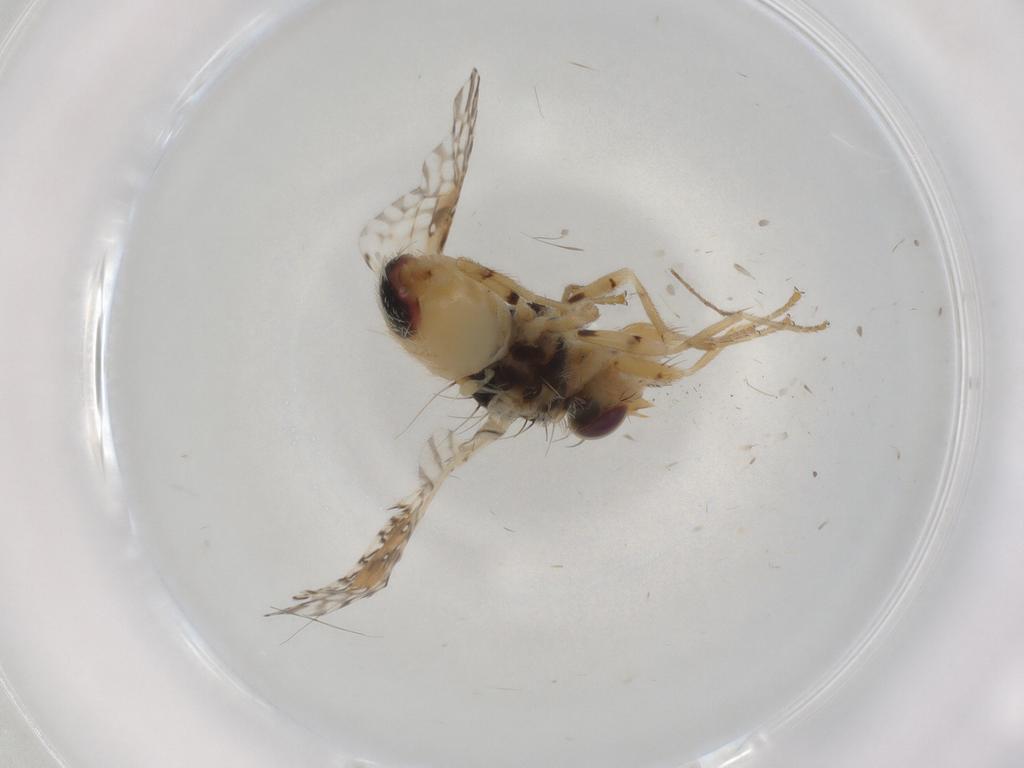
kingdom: Animalia
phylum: Arthropoda
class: Insecta
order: Diptera
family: Tephritidae
